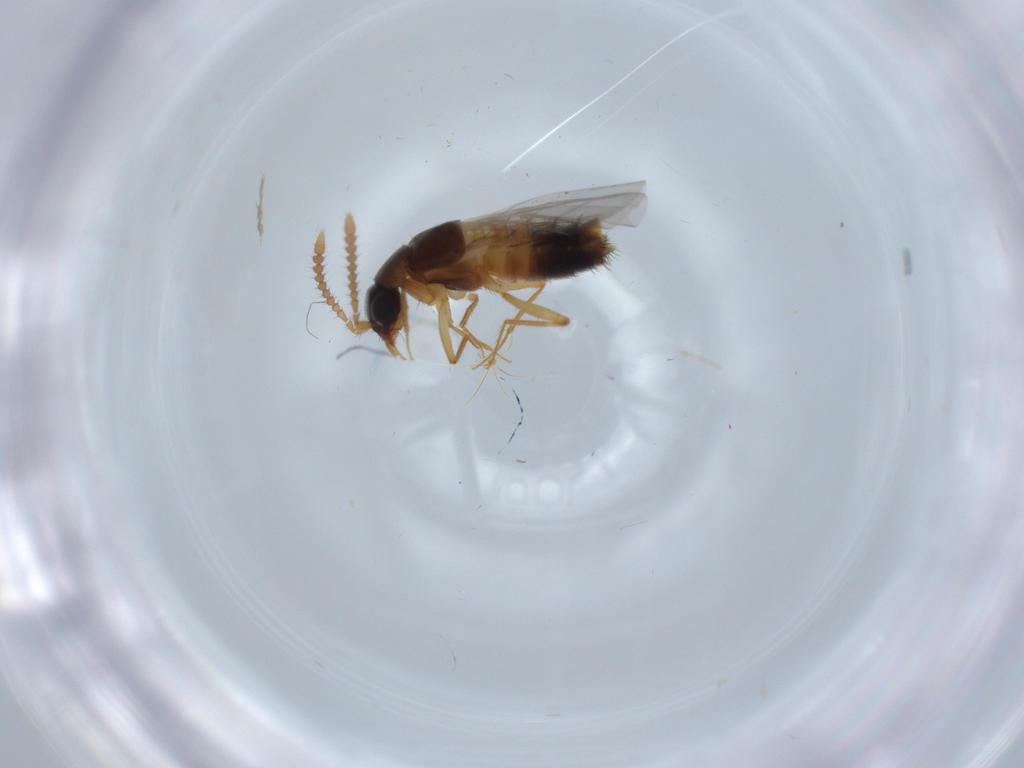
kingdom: Animalia
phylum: Arthropoda
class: Insecta
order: Coleoptera
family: Staphylinidae
